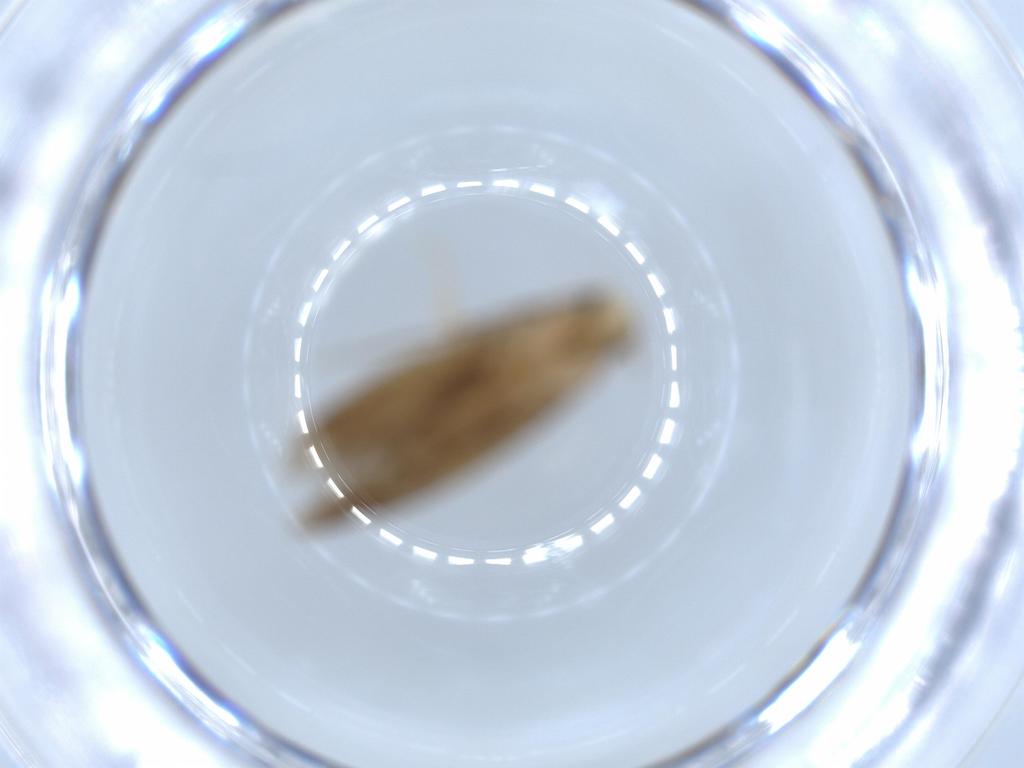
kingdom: Animalia
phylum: Arthropoda
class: Insecta
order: Lepidoptera
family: Tineidae
